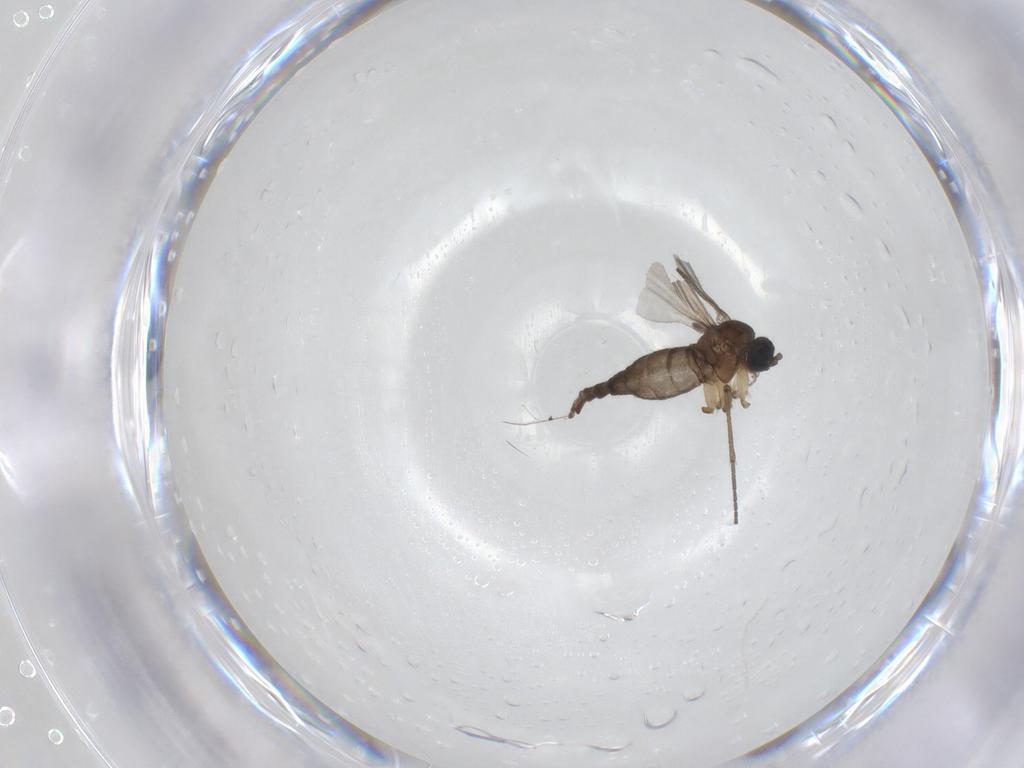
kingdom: Animalia
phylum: Arthropoda
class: Insecta
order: Diptera
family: Sciaridae
